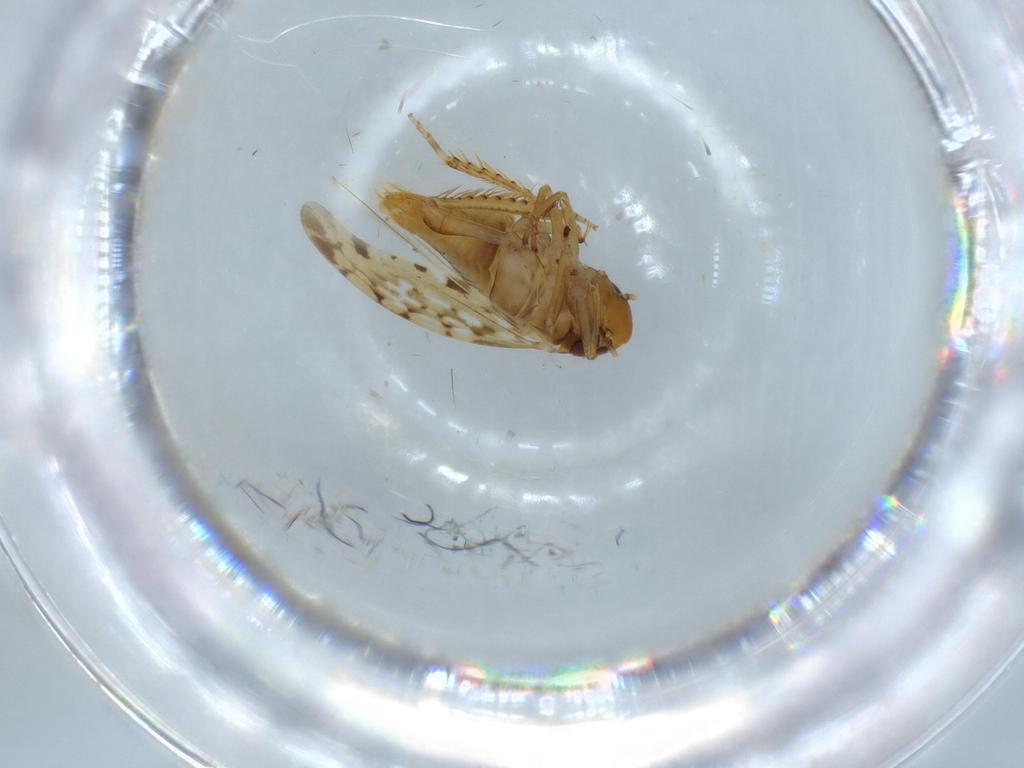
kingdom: Animalia
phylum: Arthropoda
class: Insecta
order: Hemiptera
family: Cicadellidae
